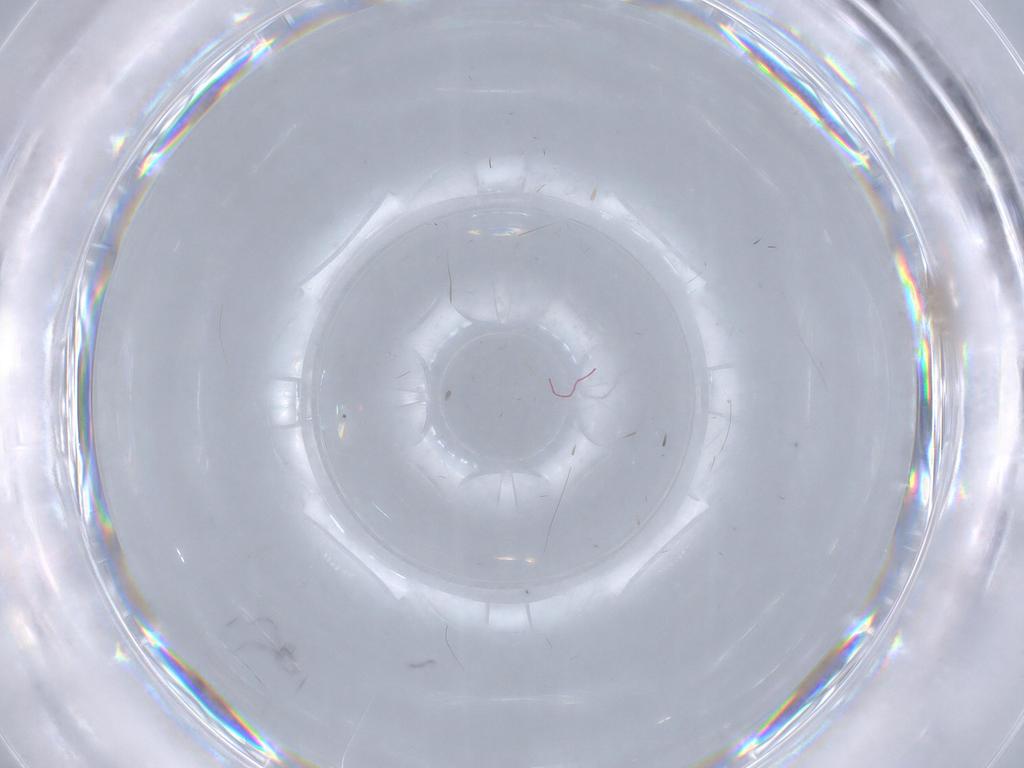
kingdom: Animalia
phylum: Arthropoda
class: Insecta
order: Diptera
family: Chironomidae
